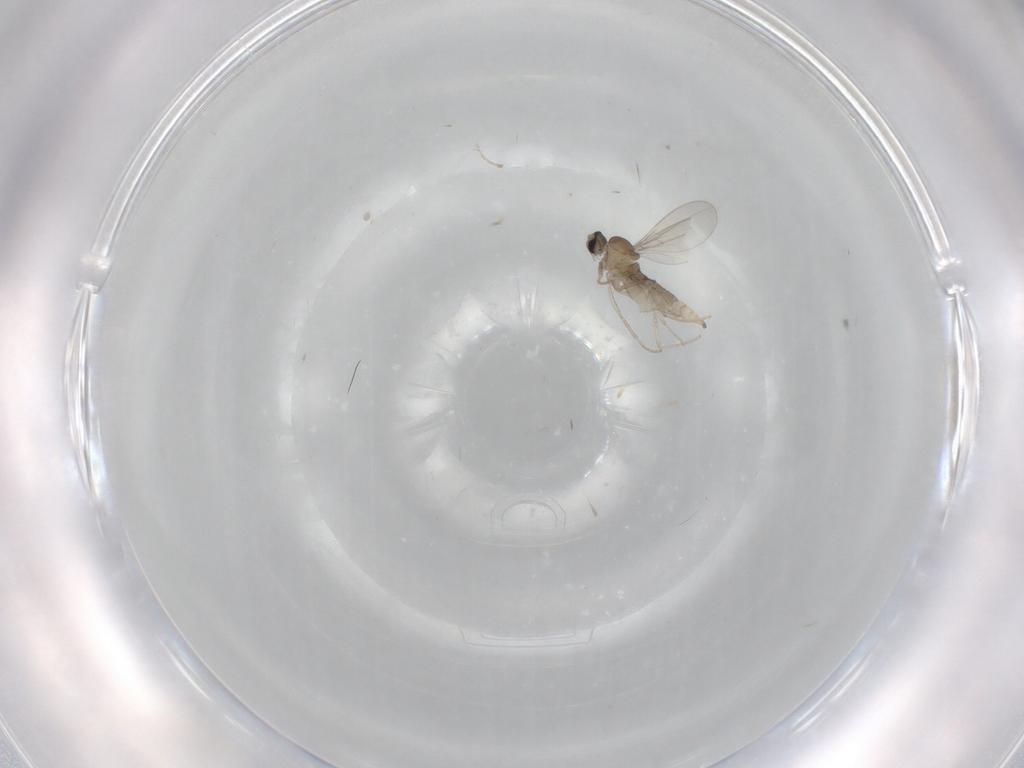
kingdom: Animalia
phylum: Arthropoda
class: Insecta
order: Diptera
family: Cecidomyiidae
